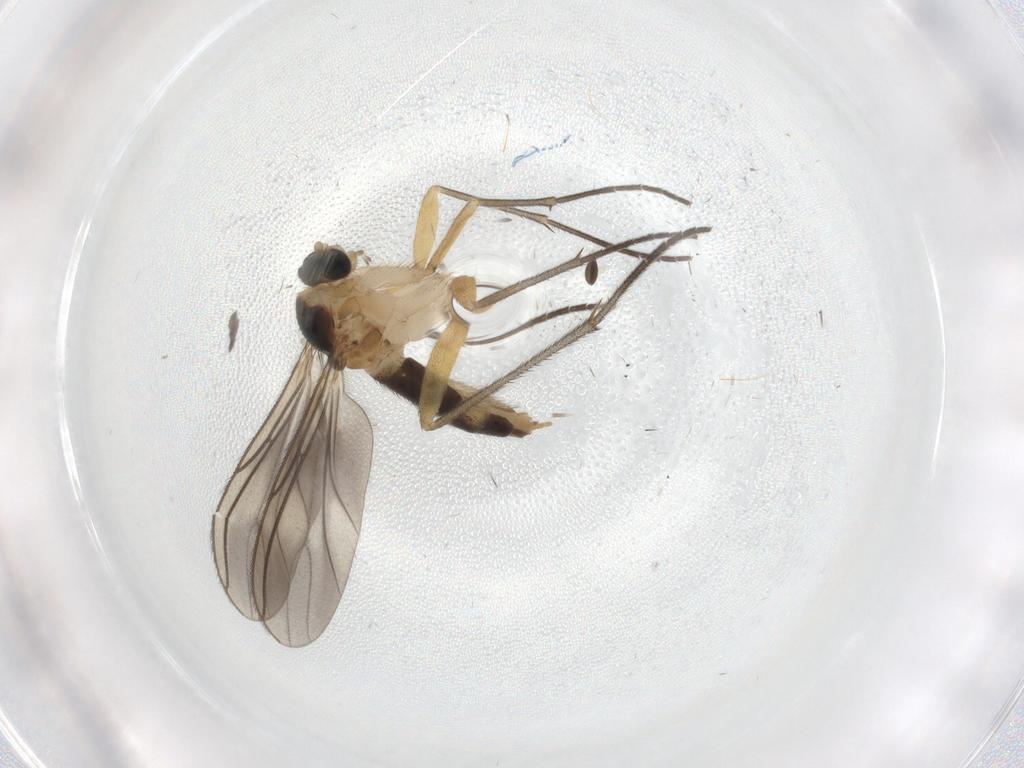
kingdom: Animalia
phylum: Arthropoda
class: Insecta
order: Diptera
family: Sciaridae
